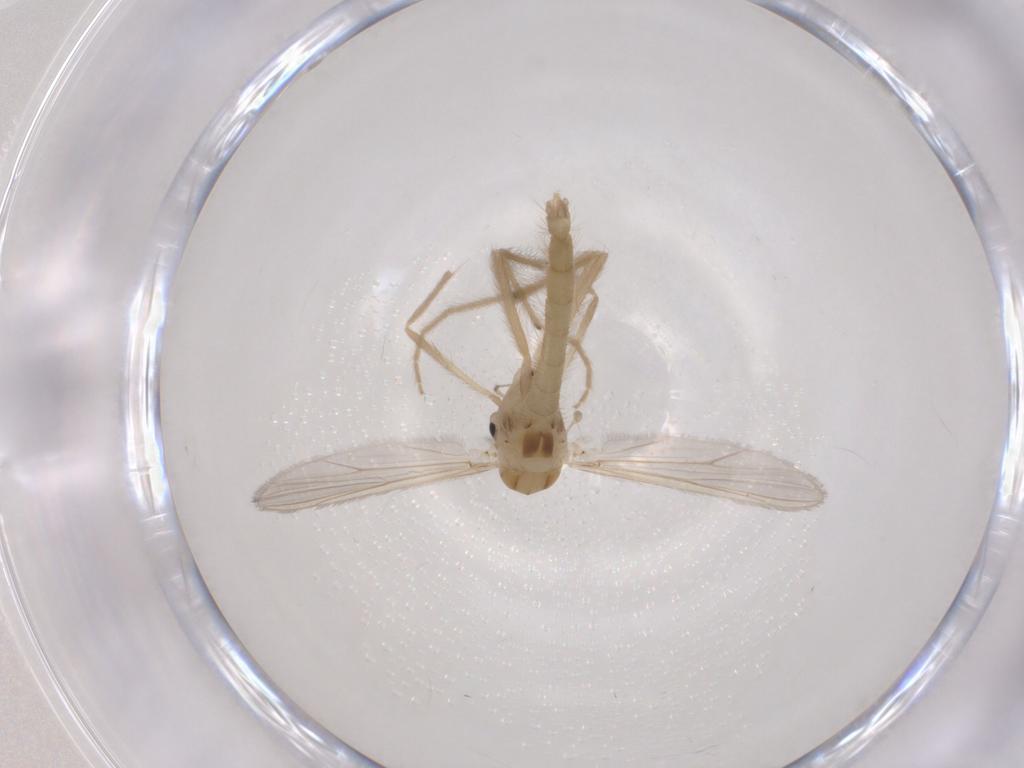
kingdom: Animalia
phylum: Arthropoda
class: Insecta
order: Diptera
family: Chironomidae
